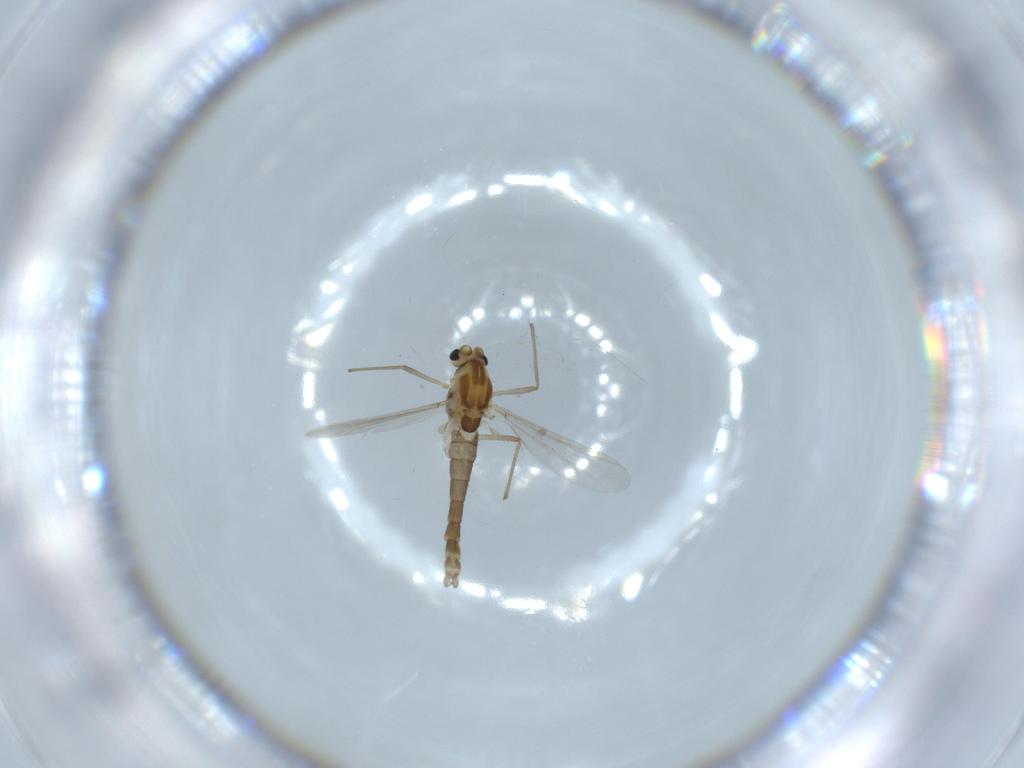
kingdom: Animalia
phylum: Arthropoda
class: Insecta
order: Diptera
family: Chironomidae
